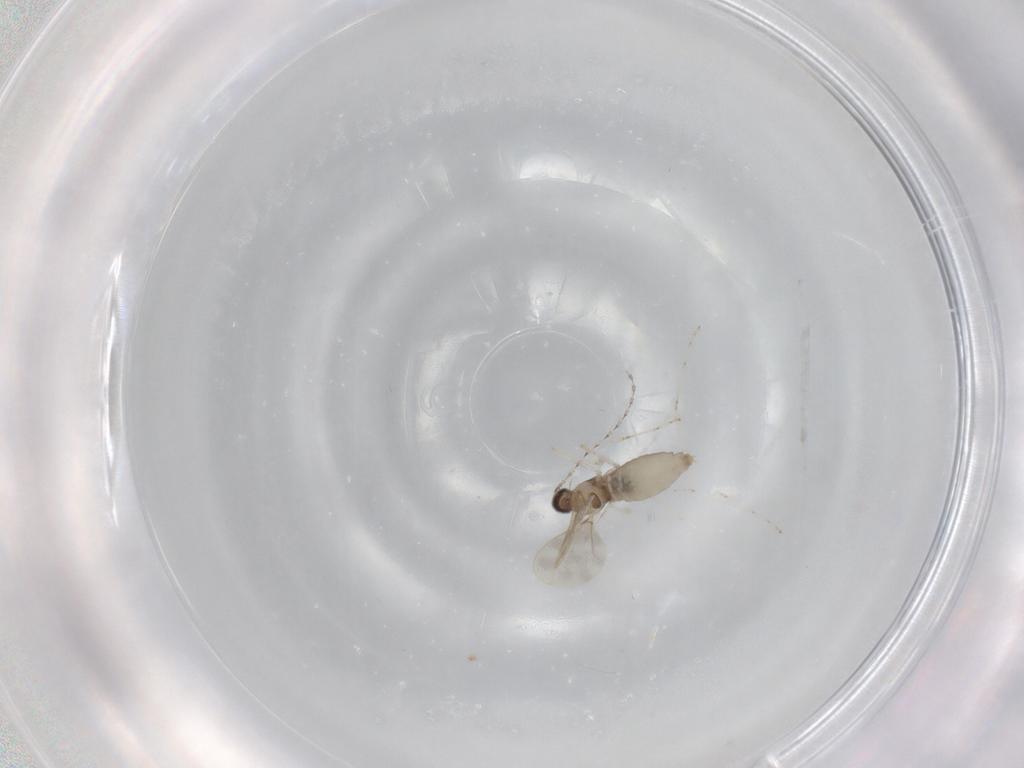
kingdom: Animalia
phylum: Arthropoda
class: Insecta
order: Diptera
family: Cecidomyiidae
